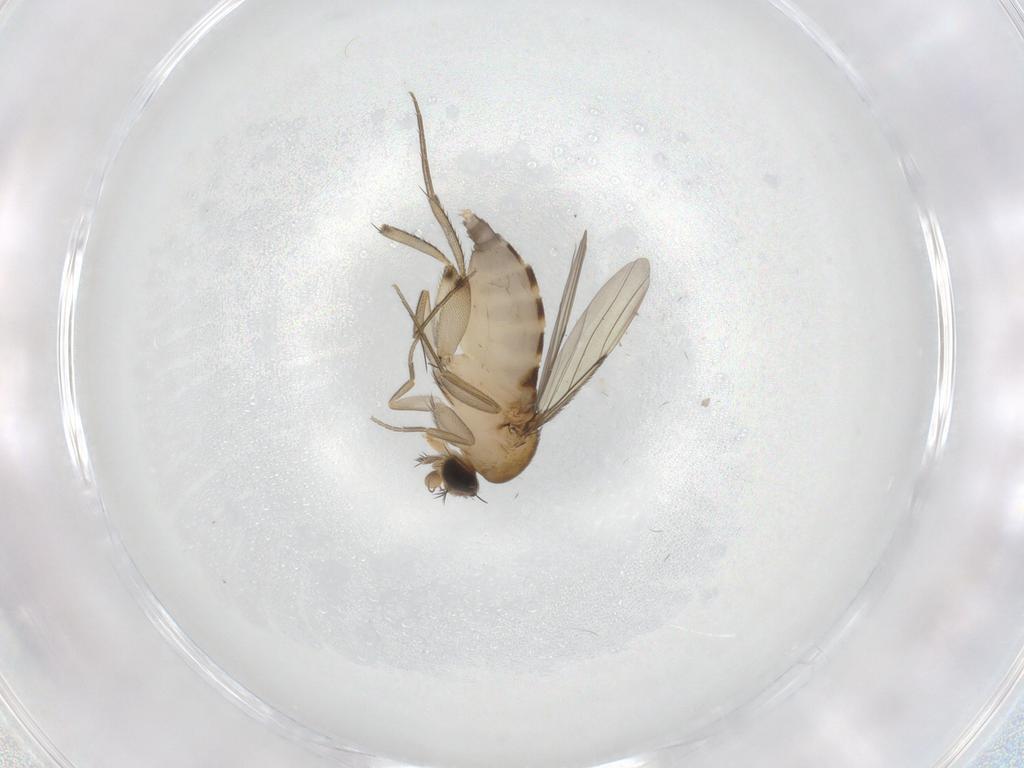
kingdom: Animalia
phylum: Arthropoda
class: Insecta
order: Diptera
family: Phoridae
